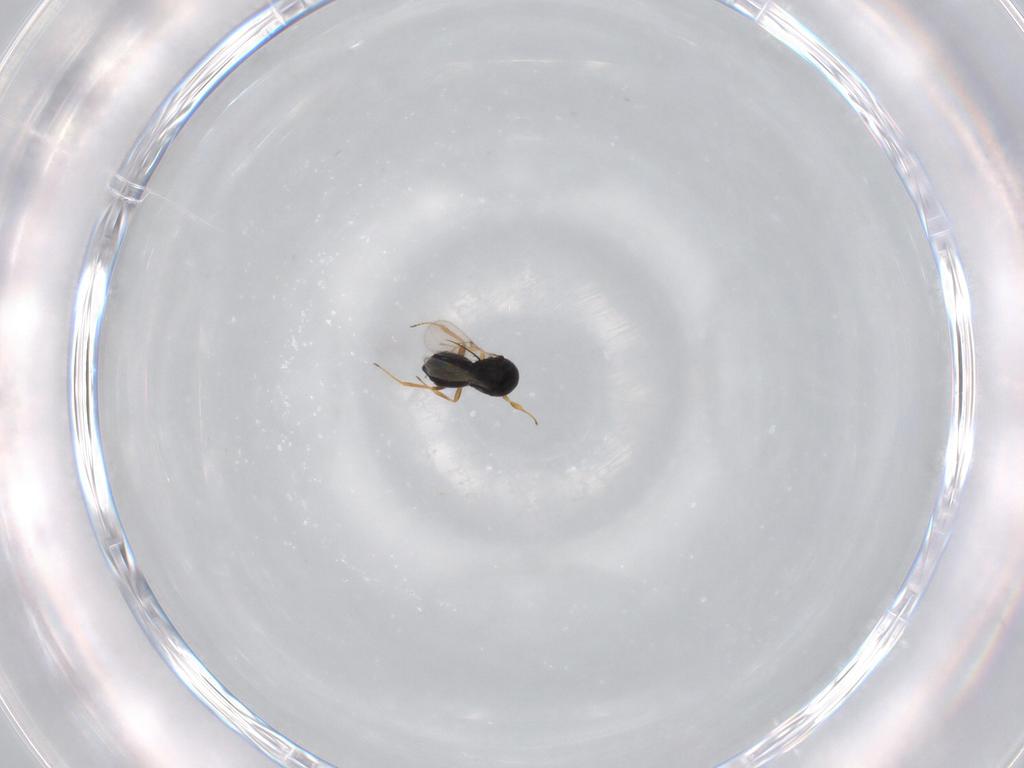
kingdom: Animalia
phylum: Arthropoda
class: Insecta
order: Hymenoptera
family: Scelionidae
